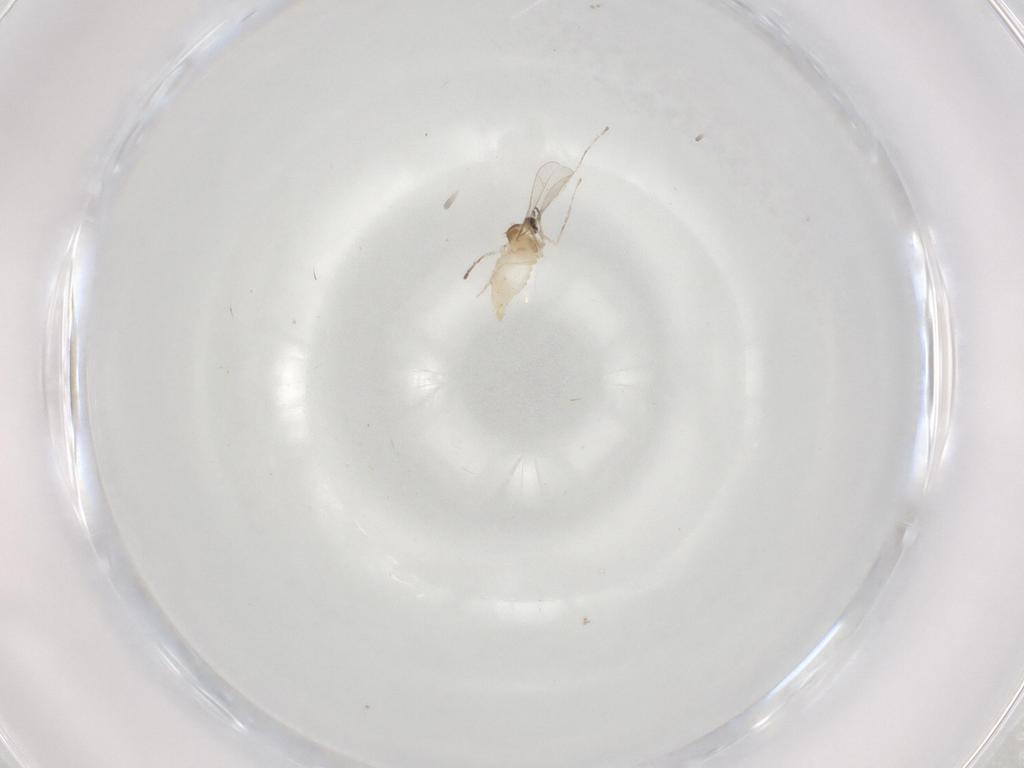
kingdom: Animalia
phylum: Arthropoda
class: Insecta
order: Diptera
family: Cecidomyiidae
